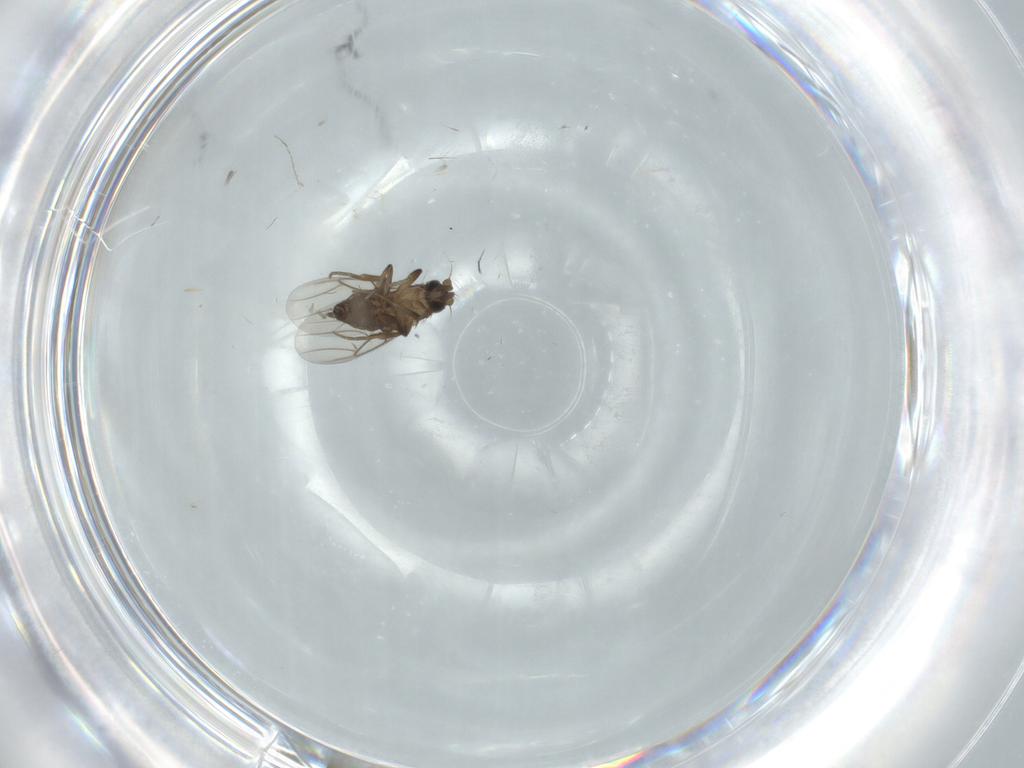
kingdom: Animalia
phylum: Arthropoda
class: Insecta
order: Diptera
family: Phoridae
